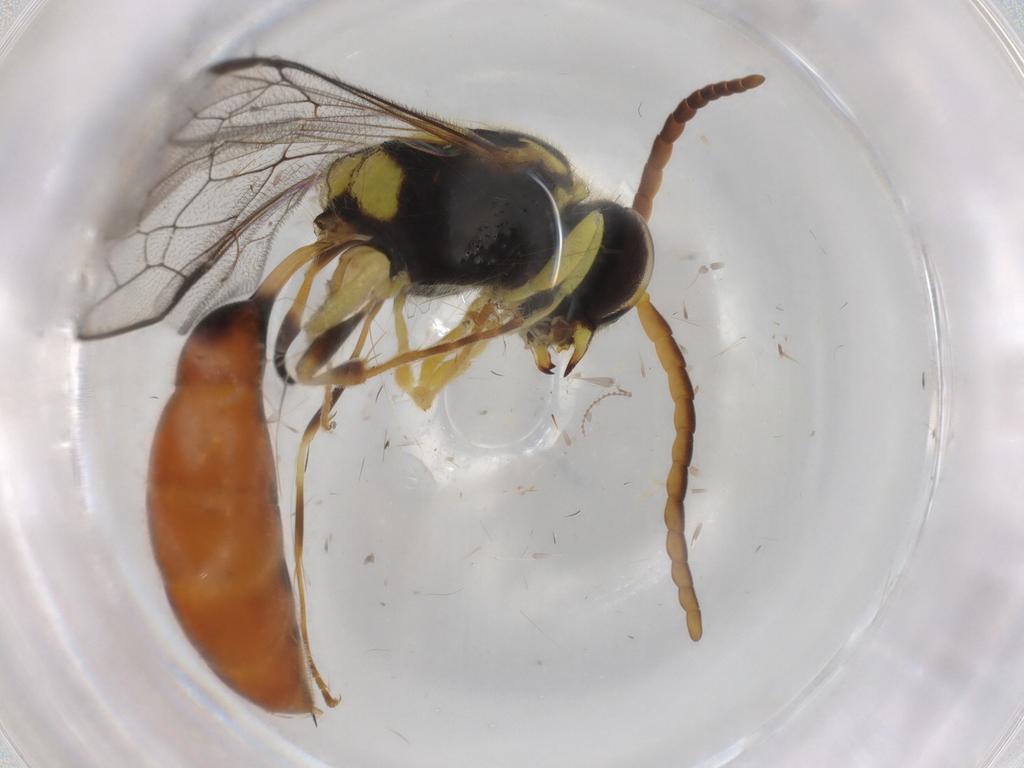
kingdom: Animalia
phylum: Arthropoda
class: Insecta
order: Hymenoptera
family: Crabronidae
